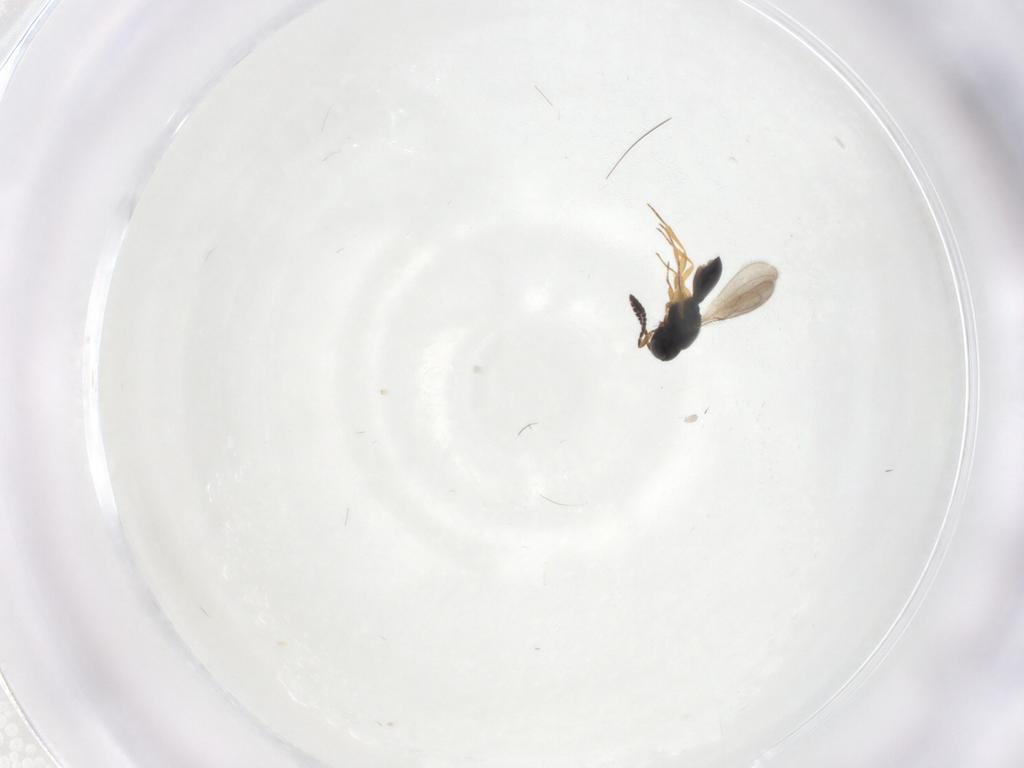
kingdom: Animalia
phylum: Arthropoda
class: Insecta
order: Hymenoptera
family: Scelionidae
